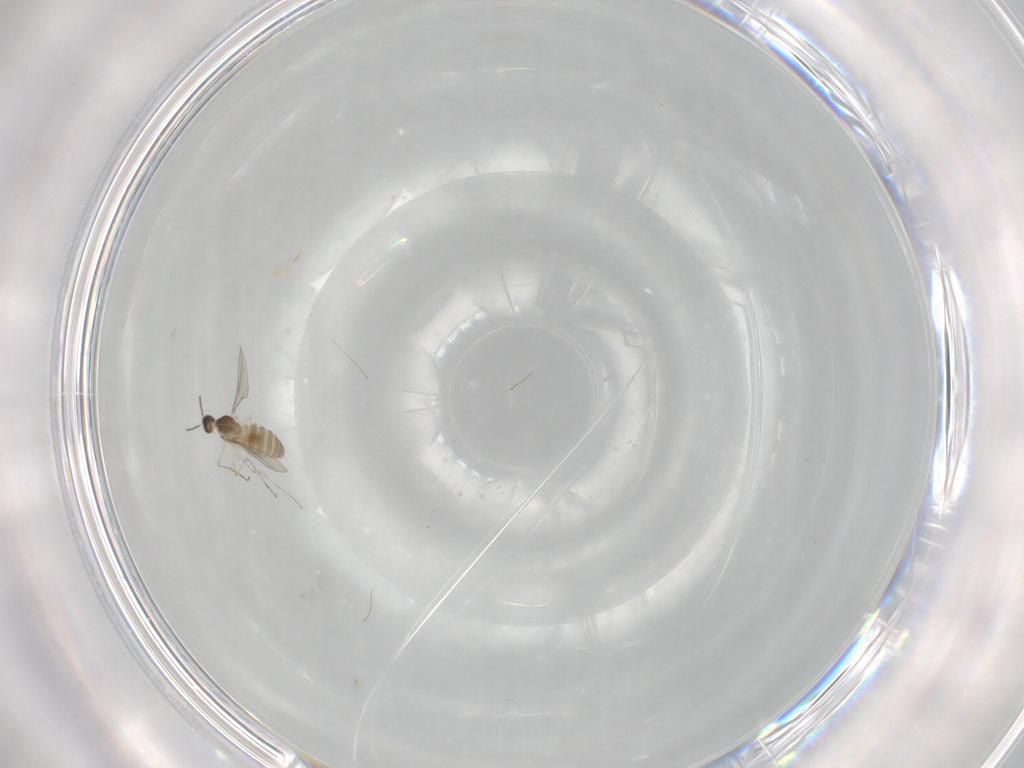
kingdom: Animalia
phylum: Arthropoda
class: Insecta
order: Diptera
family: Cecidomyiidae
